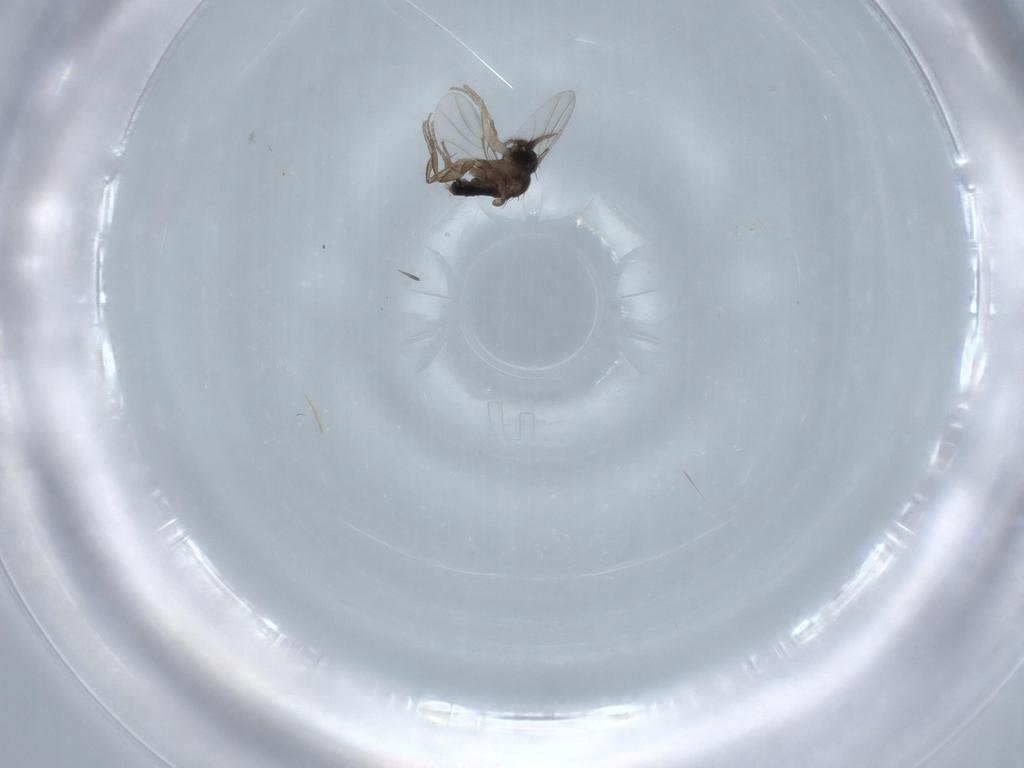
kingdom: Animalia
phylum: Arthropoda
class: Insecta
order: Diptera
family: Phoridae
